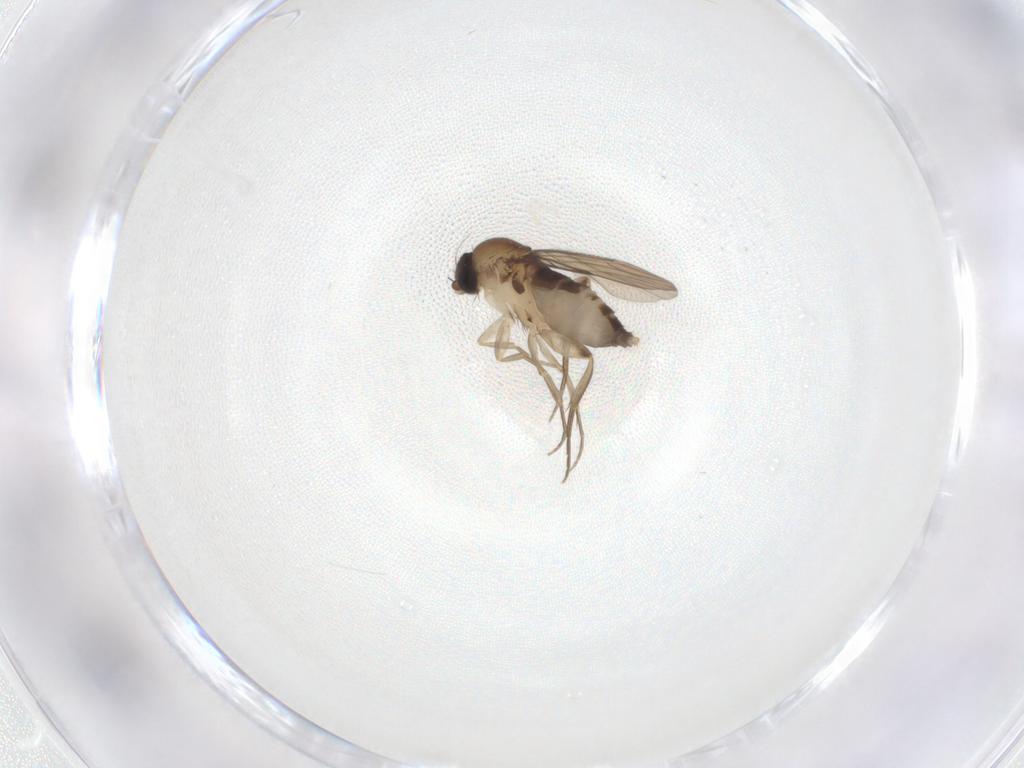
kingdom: Animalia
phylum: Arthropoda
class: Insecta
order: Diptera
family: Phoridae
